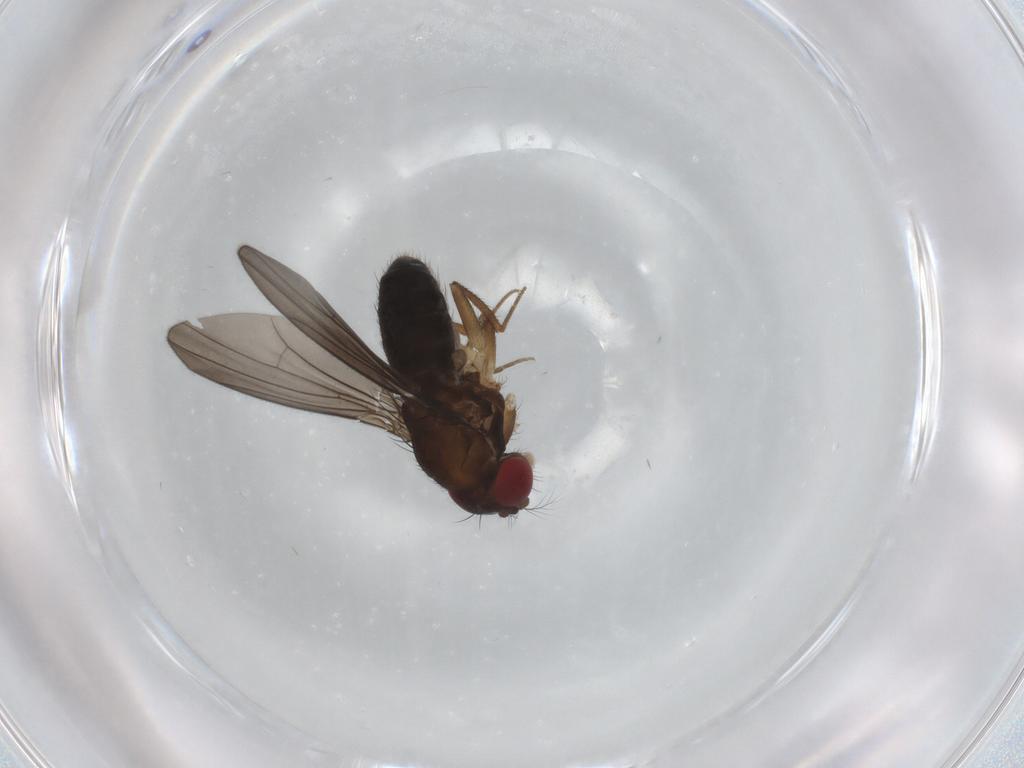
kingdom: Animalia
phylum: Arthropoda
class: Insecta
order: Diptera
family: Drosophilidae
